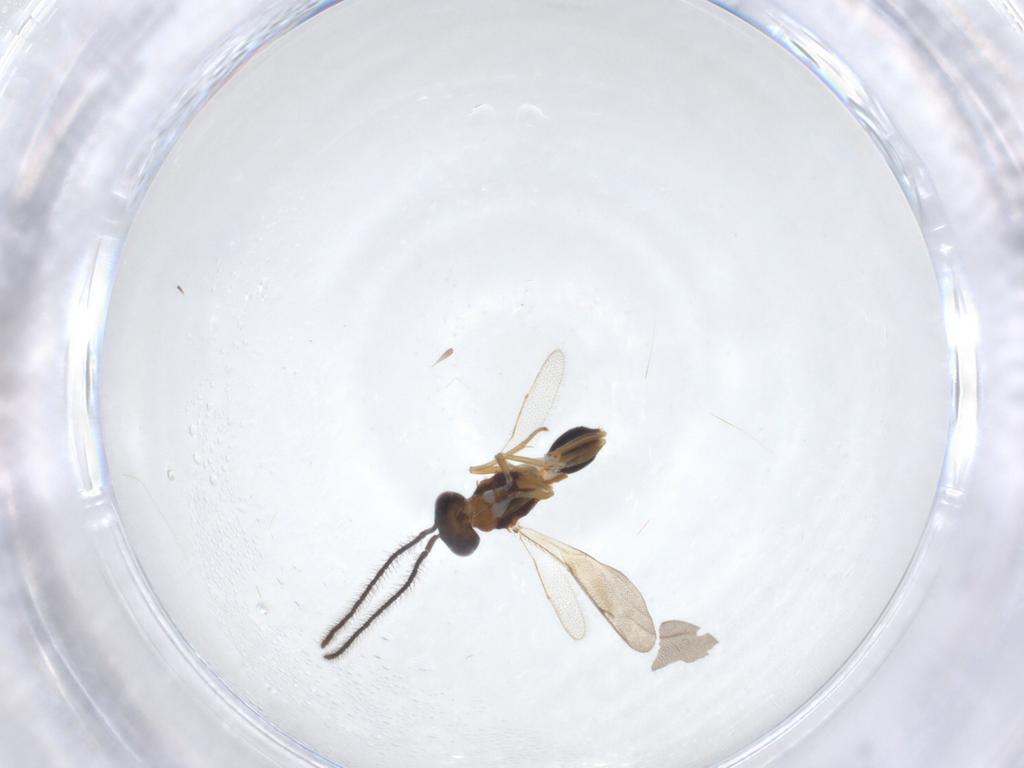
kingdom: Animalia
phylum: Arthropoda
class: Insecta
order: Hymenoptera
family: Diparidae
